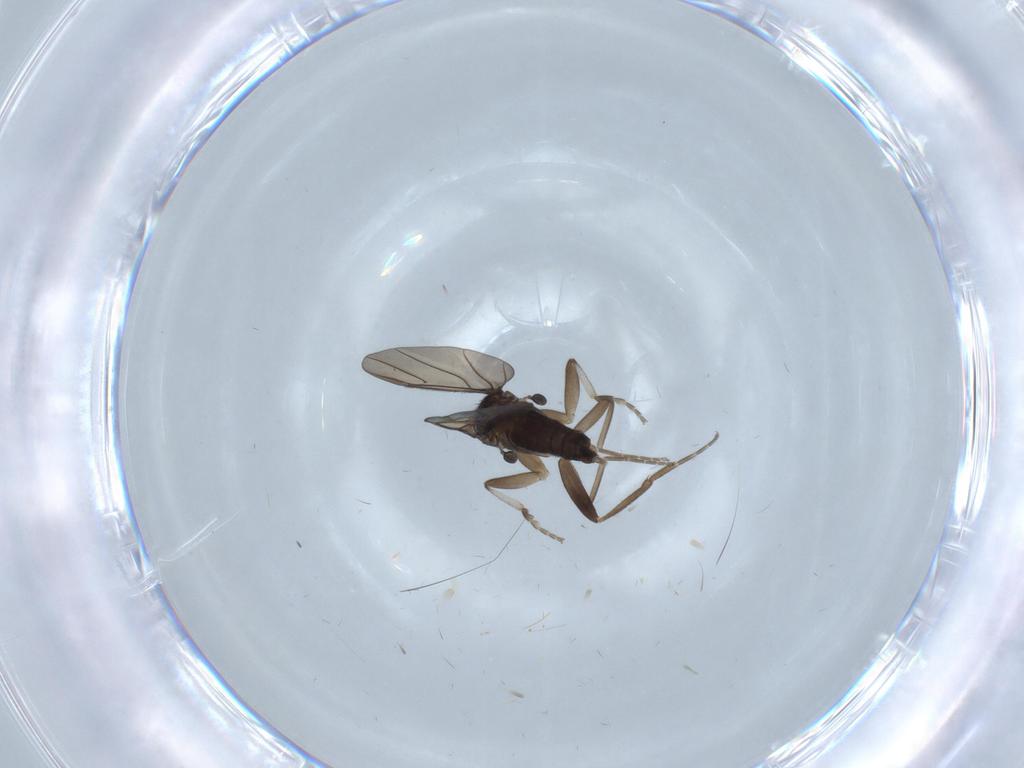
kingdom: Animalia
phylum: Arthropoda
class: Insecta
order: Diptera
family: Phoridae
